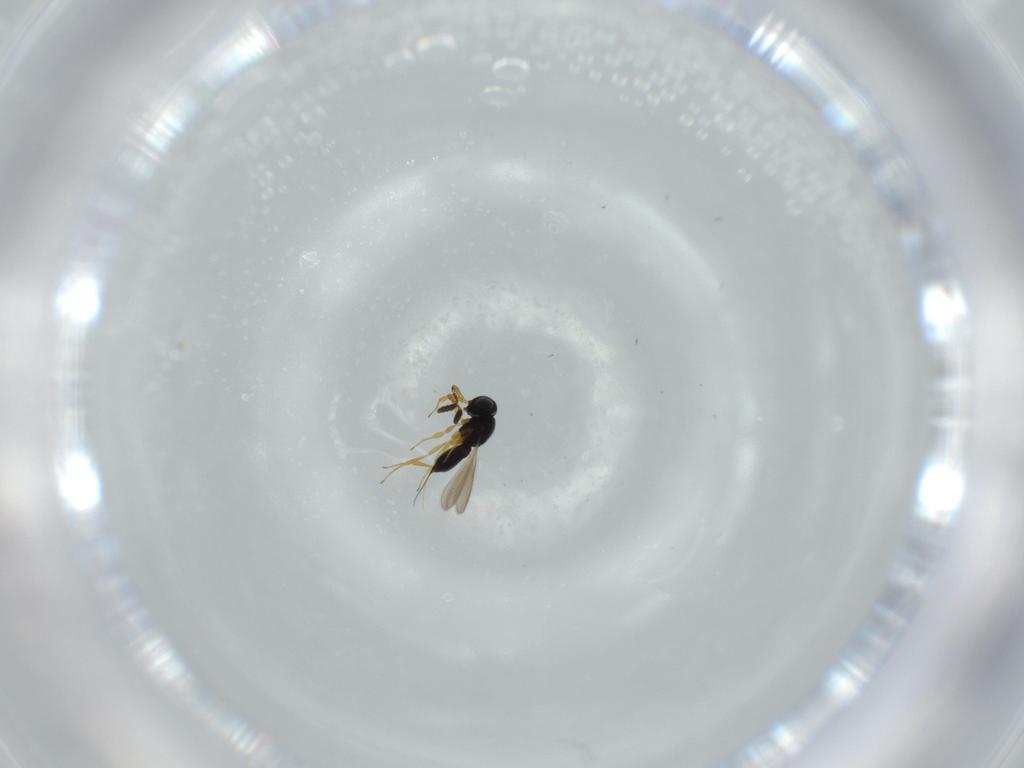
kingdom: Animalia
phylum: Arthropoda
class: Insecta
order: Hymenoptera
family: Scelionidae
